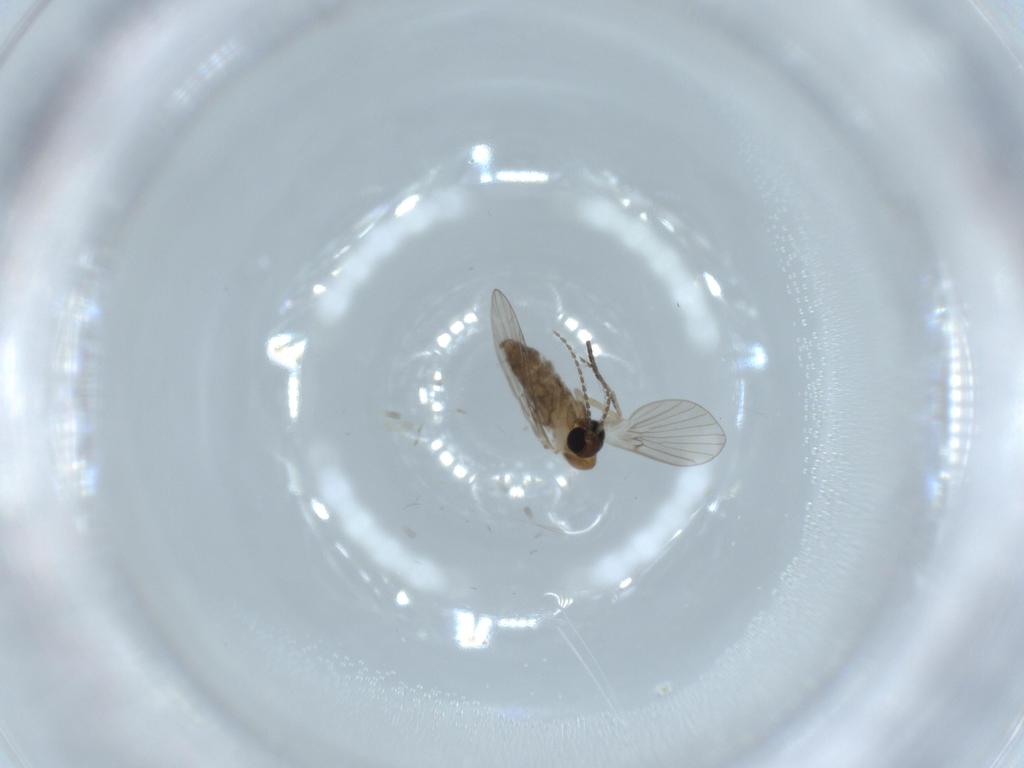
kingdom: Animalia
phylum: Arthropoda
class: Insecta
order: Diptera
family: Psychodidae
